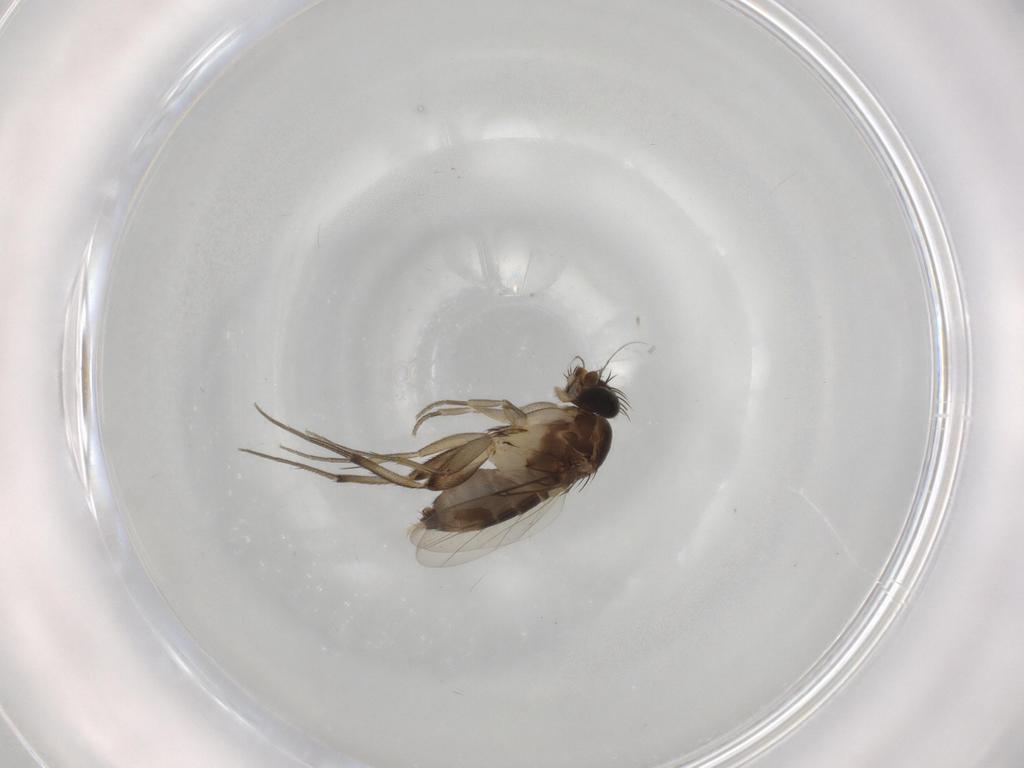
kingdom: Animalia
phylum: Arthropoda
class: Insecta
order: Diptera
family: Phoridae
